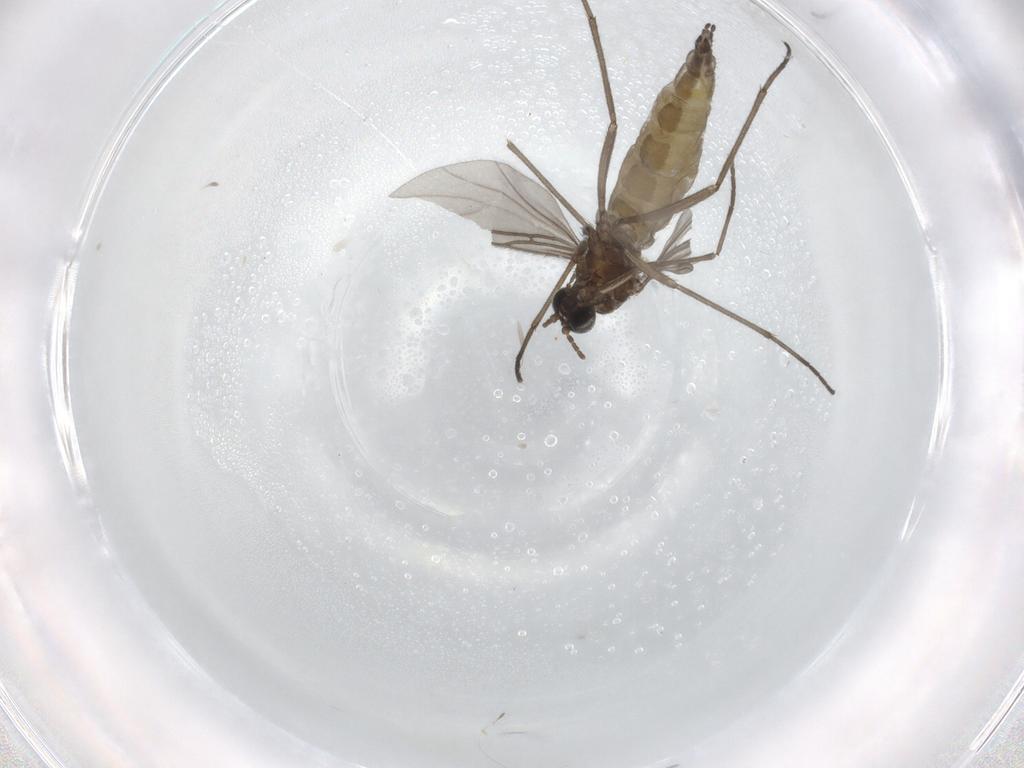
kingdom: Animalia
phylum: Arthropoda
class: Insecta
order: Diptera
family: Sciaridae
